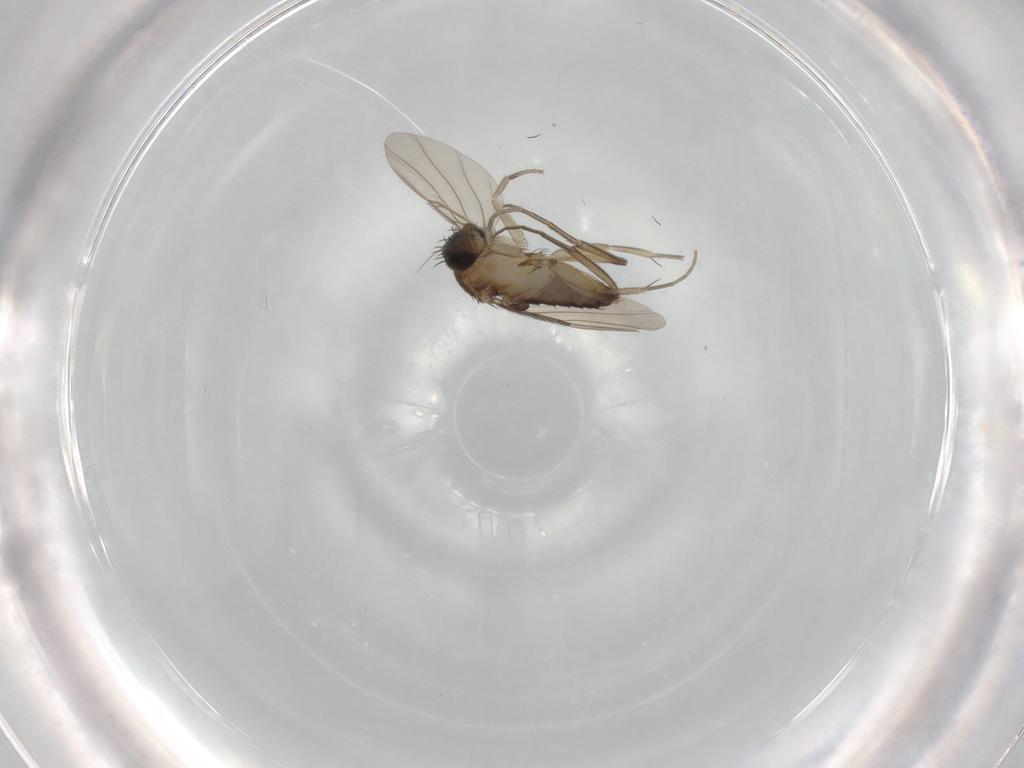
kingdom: Animalia
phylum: Arthropoda
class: Insecta
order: Diptera
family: Phoridae
